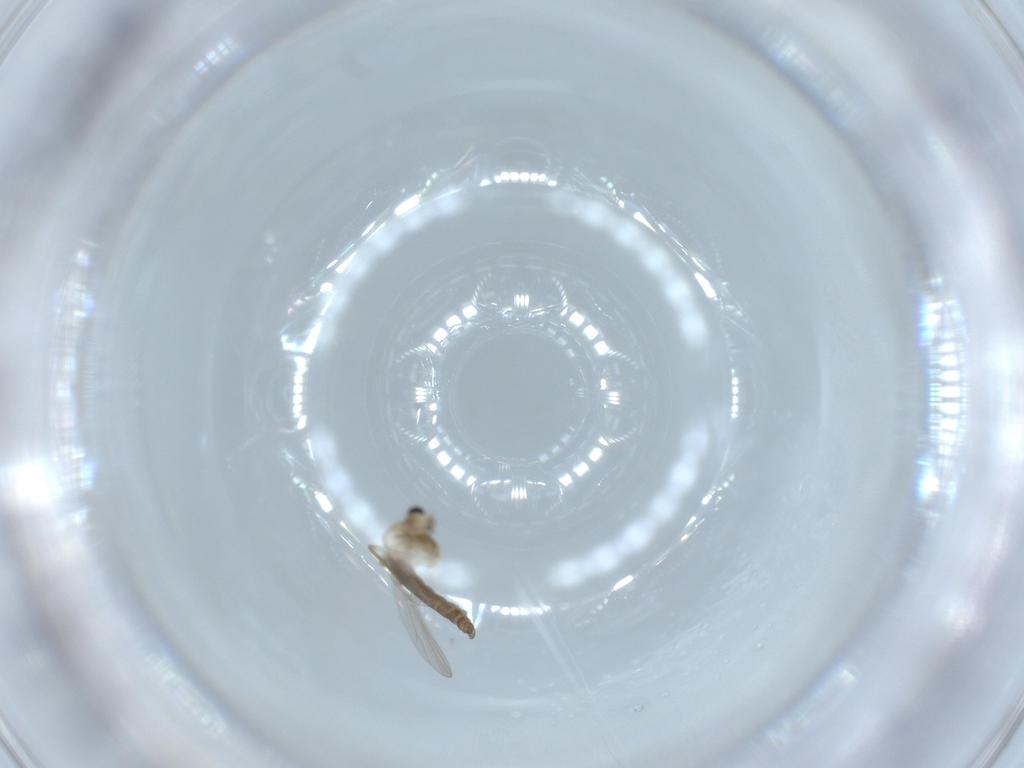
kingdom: Animalia
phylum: Arthropoda
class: Insecta
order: Diptera
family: Chironomidae
